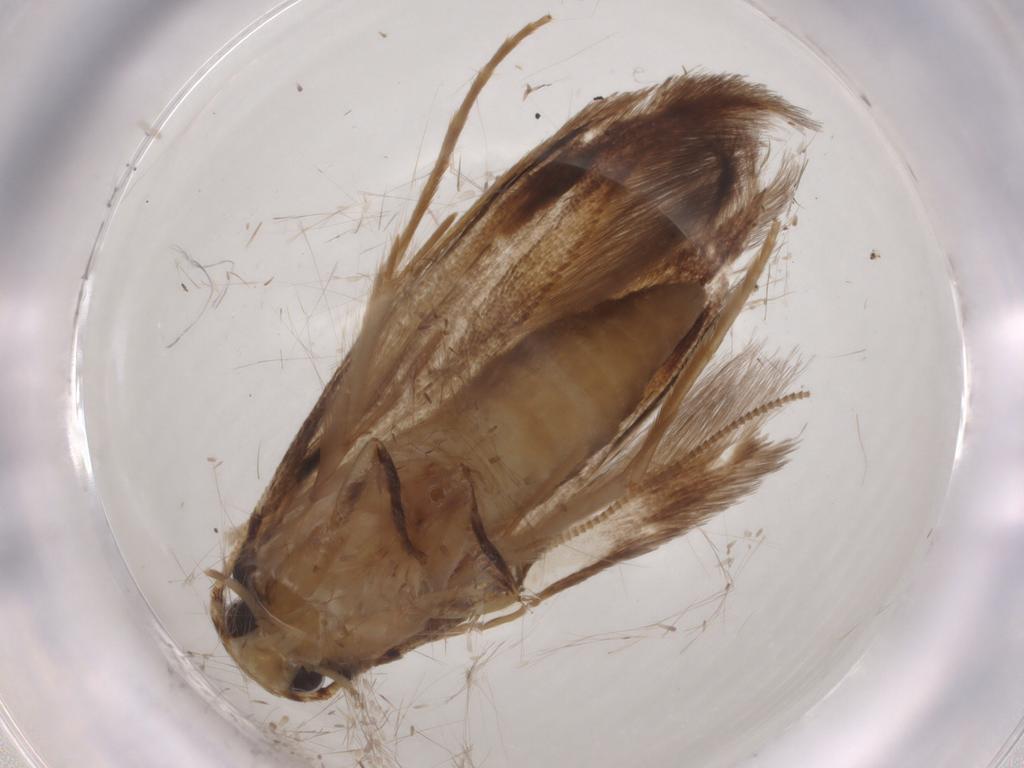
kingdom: Animalia
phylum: Arthropoda
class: Insecta
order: Lepidoptera
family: Tineidae
